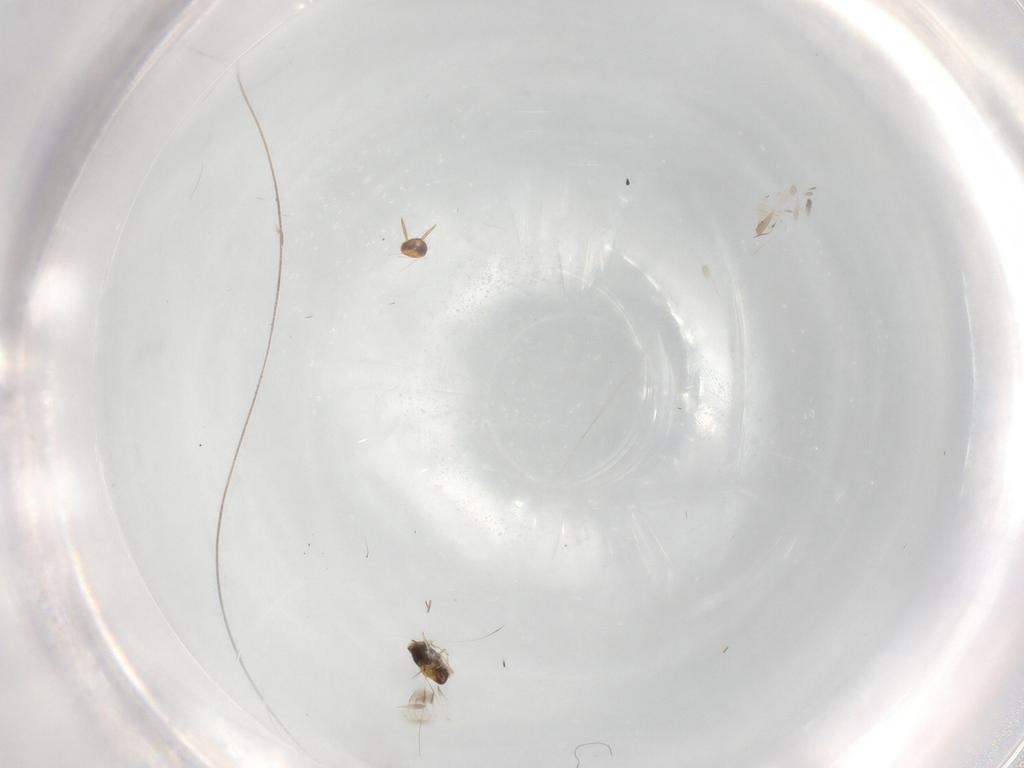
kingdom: Animalia
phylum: Arthropoda
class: Insecta
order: Hymenoptera
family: Aphelinidae
